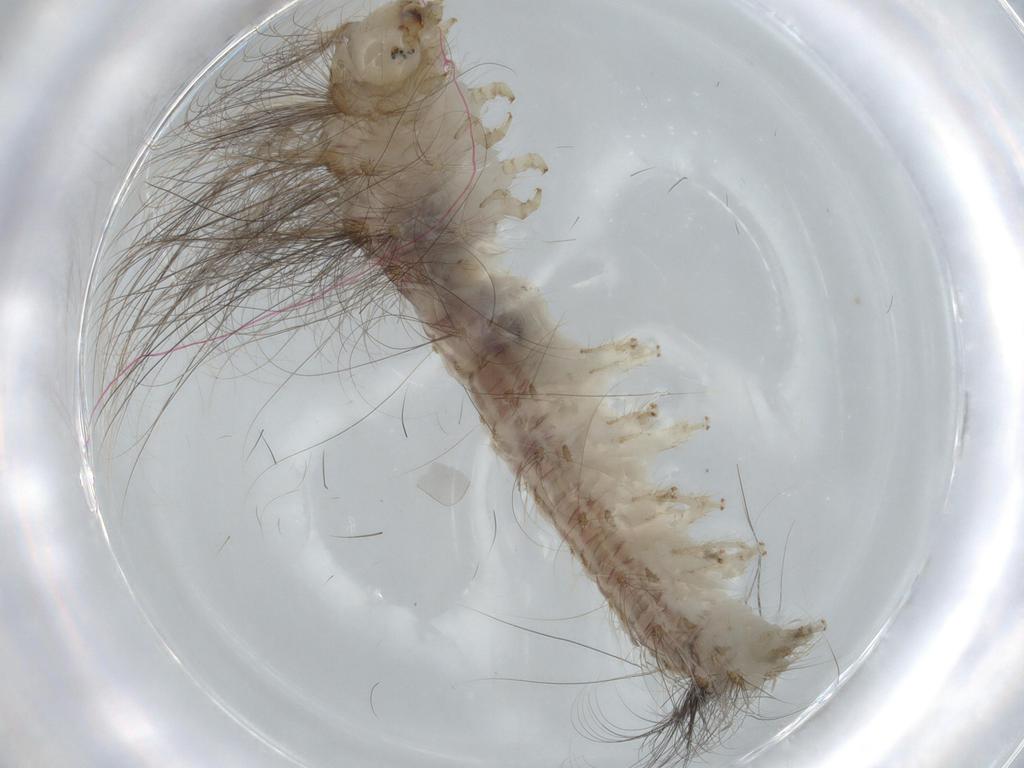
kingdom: Animalia
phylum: Arthropoda
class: Insecta
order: Lepidoptera
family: Apatelodidae
